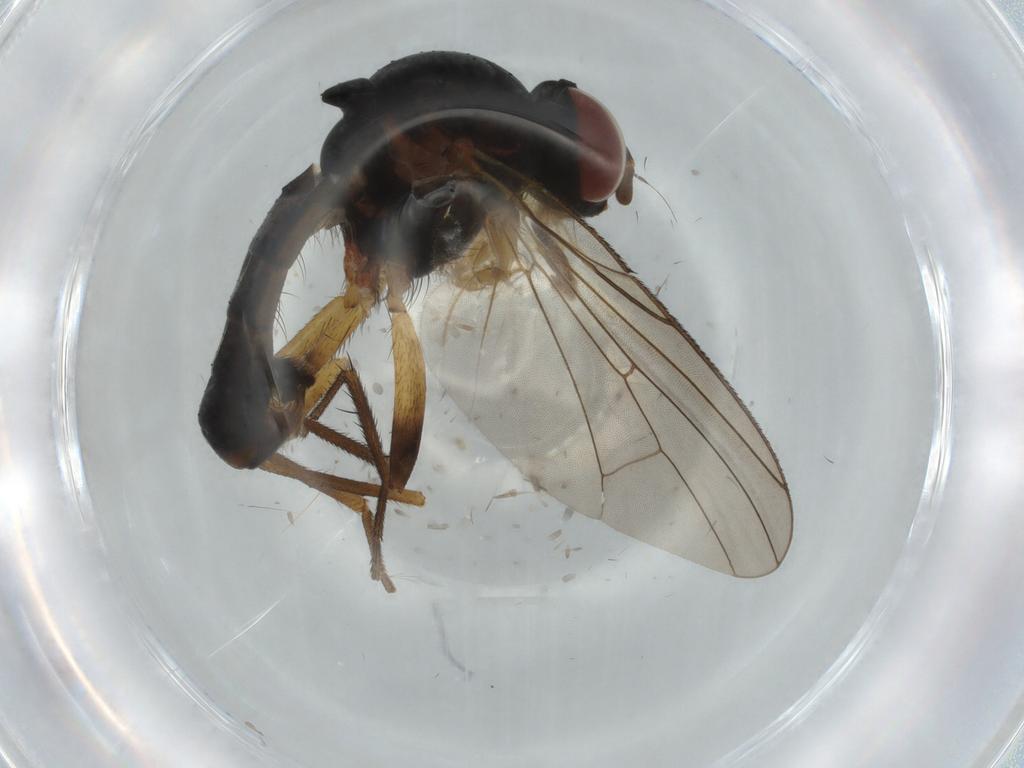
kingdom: Animalia
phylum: Arthropoda
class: Insecta
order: Diptera
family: Anthomyiidae
